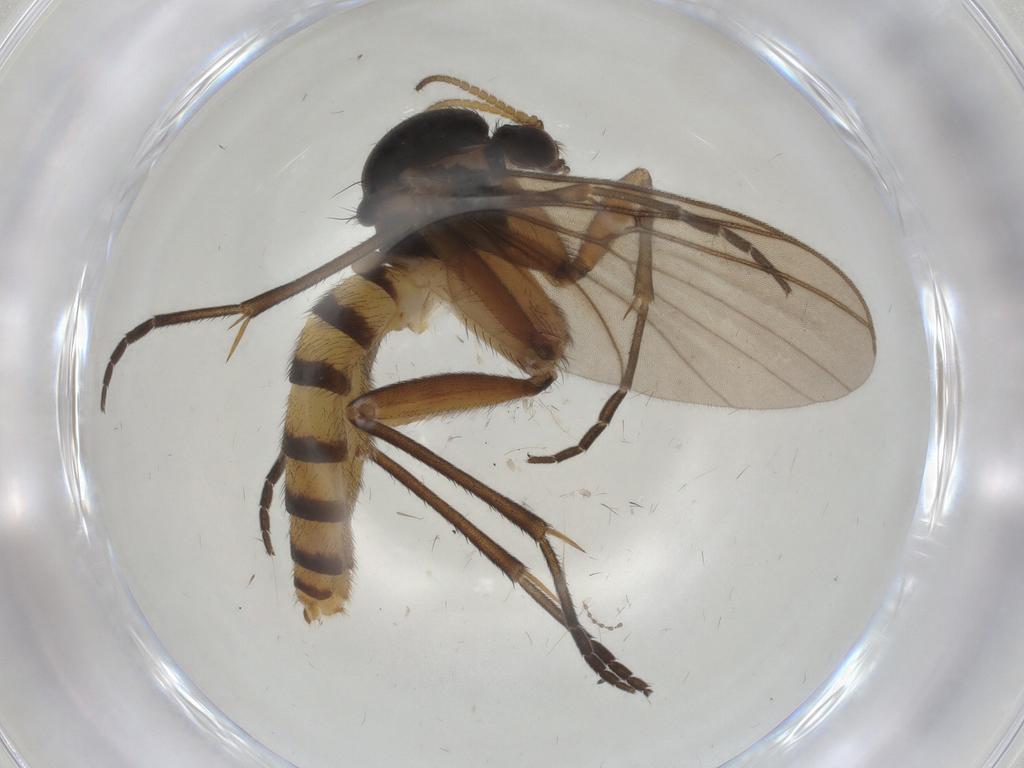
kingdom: Animalia
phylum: Arthropoda
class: Insecta
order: Diptera
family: Mycetophilidae
